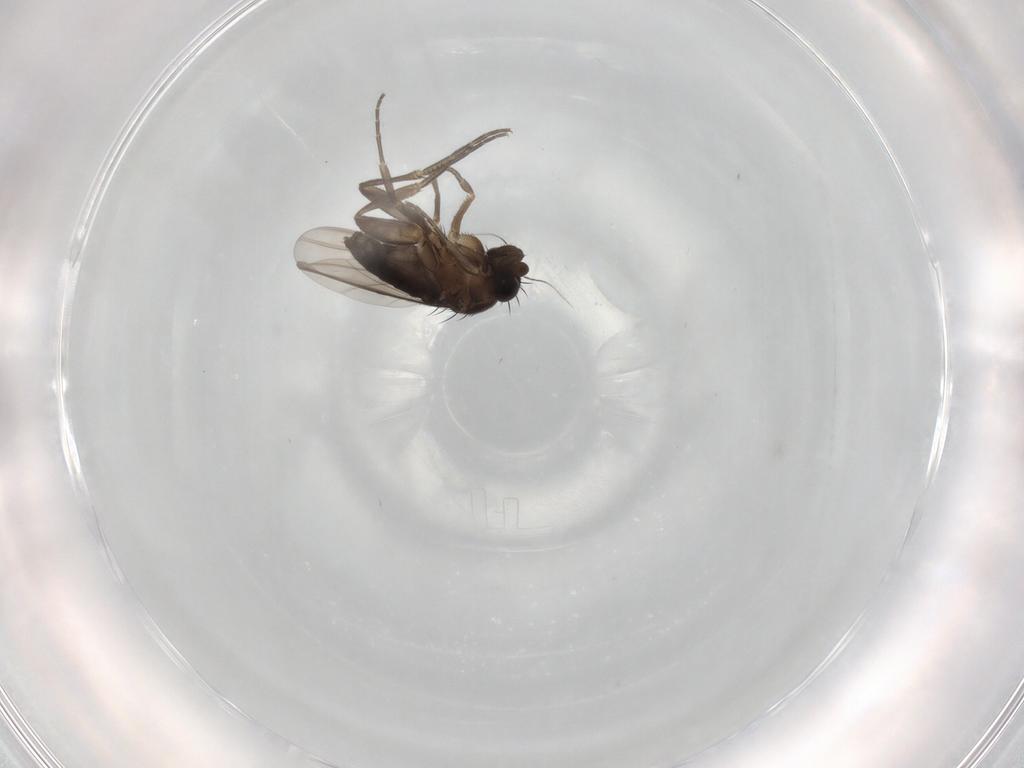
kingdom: Animalia
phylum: Arthropoda
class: Insecta
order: Diptera
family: Phoridae
